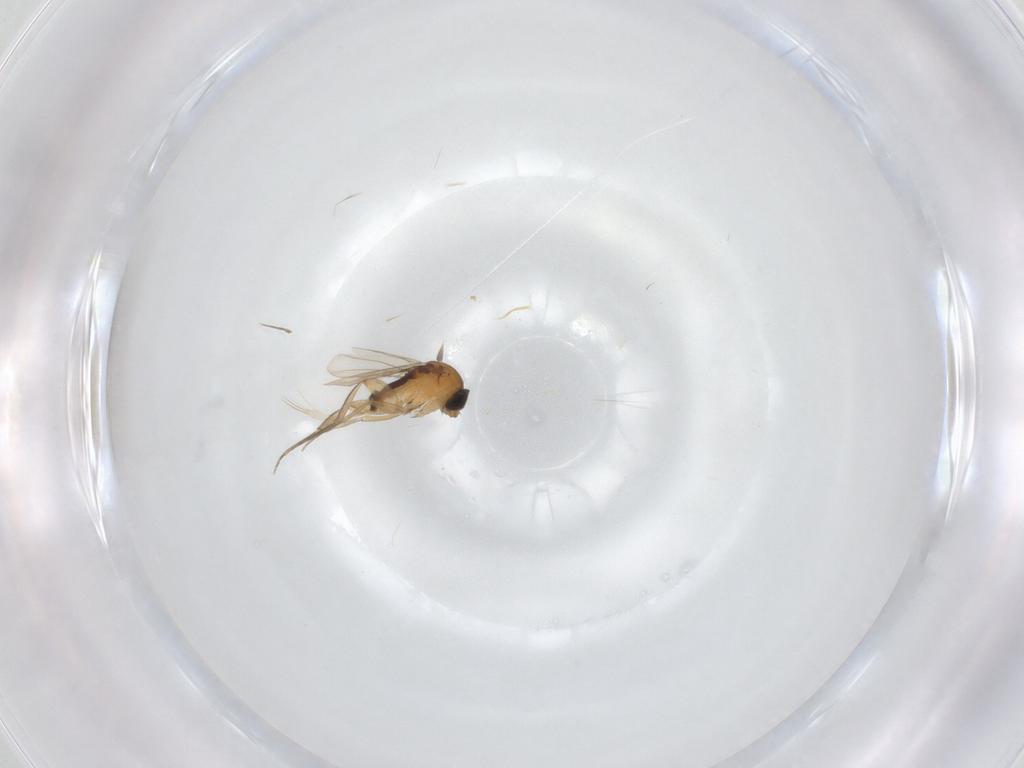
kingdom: Animalia
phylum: Arthropoda
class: Insecta
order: Diptera
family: Phoridae
